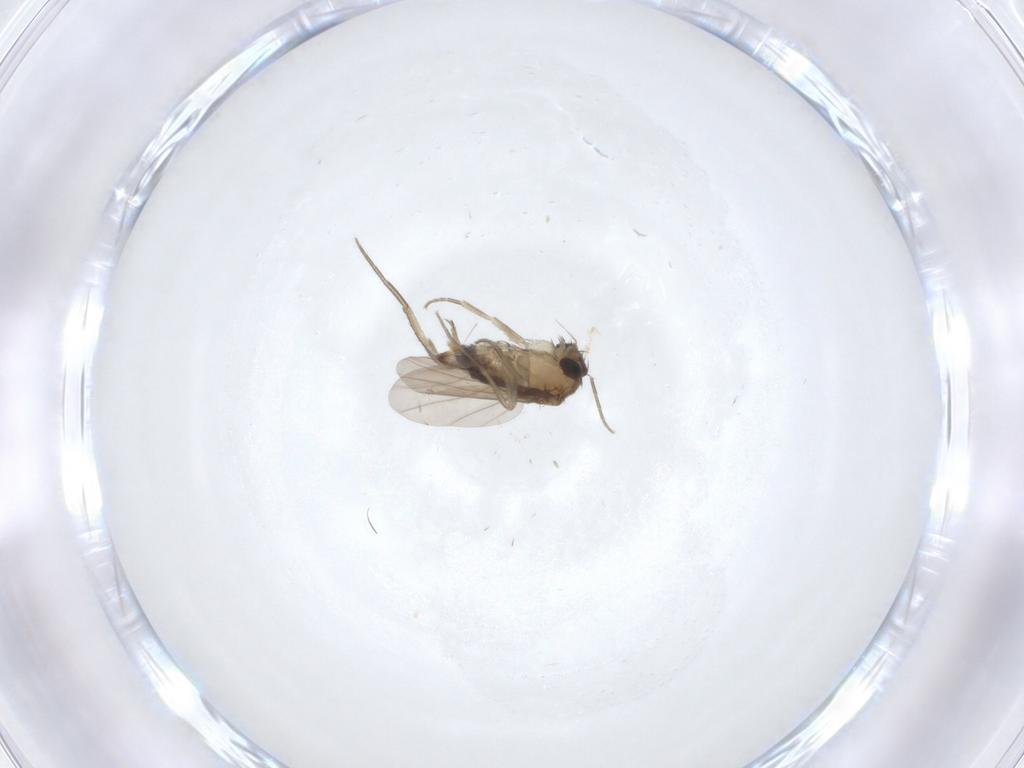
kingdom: Animalia
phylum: Arthropoda
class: Insecta
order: Diptera
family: Phoridae
